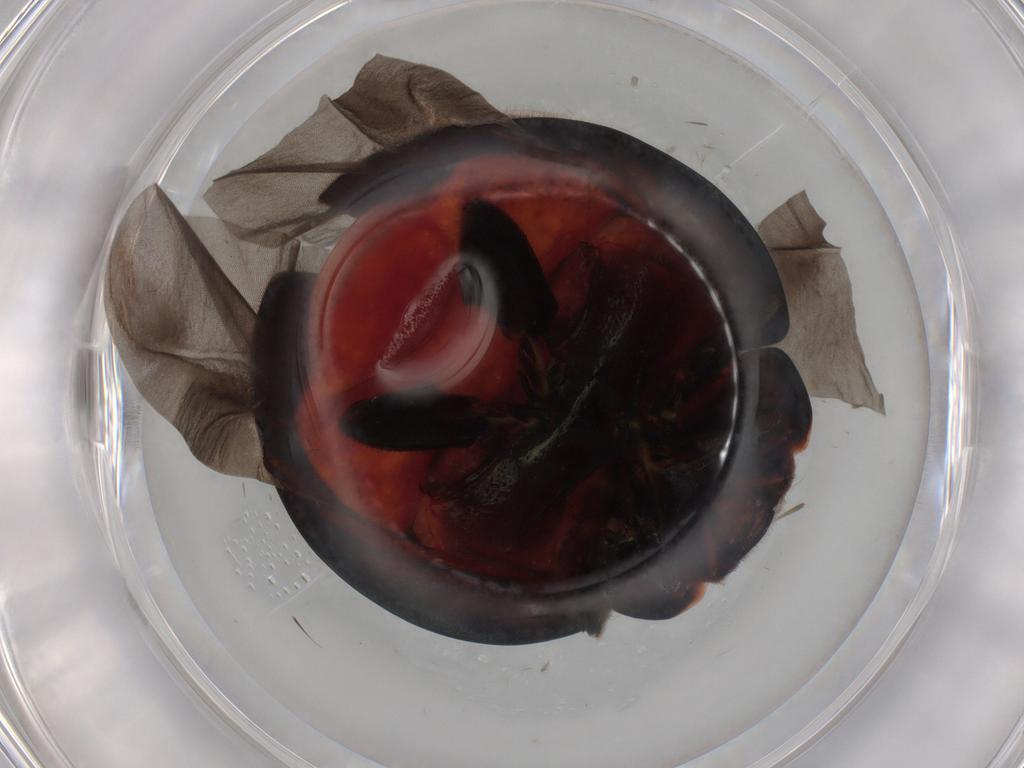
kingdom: Animalia
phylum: Arthropoda
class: Insecta
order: Coleoptera
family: Coccinellidae
